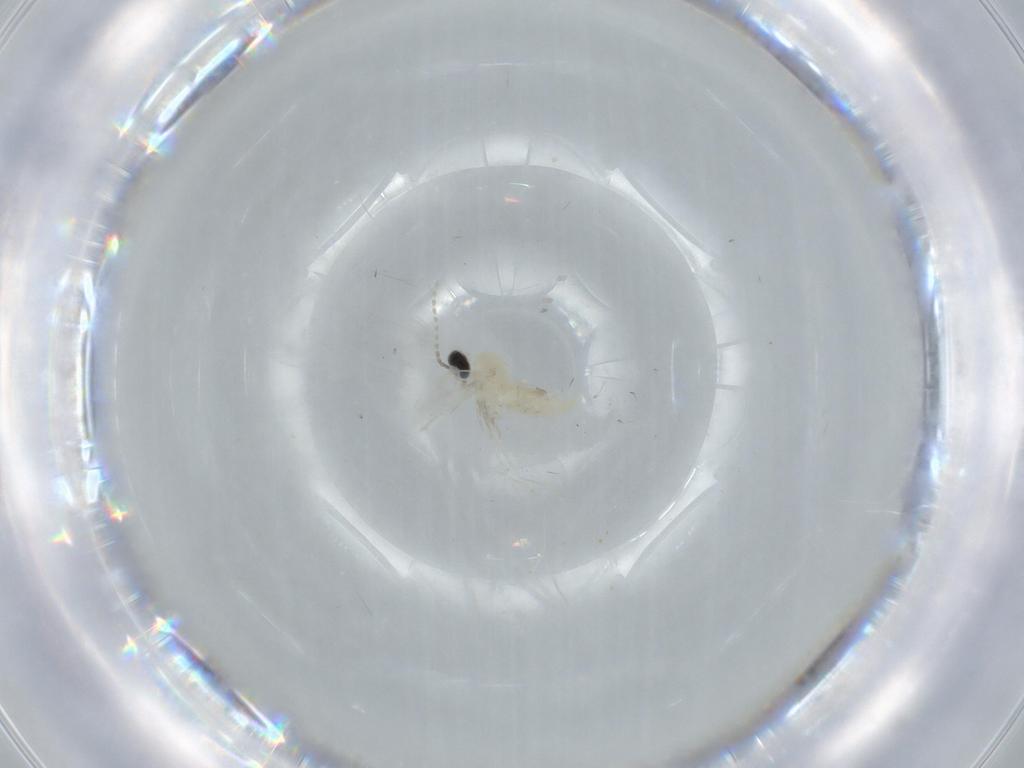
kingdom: Animalia
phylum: Arthropoda
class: Insecta
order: Diptera
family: Cecidomyiidae
